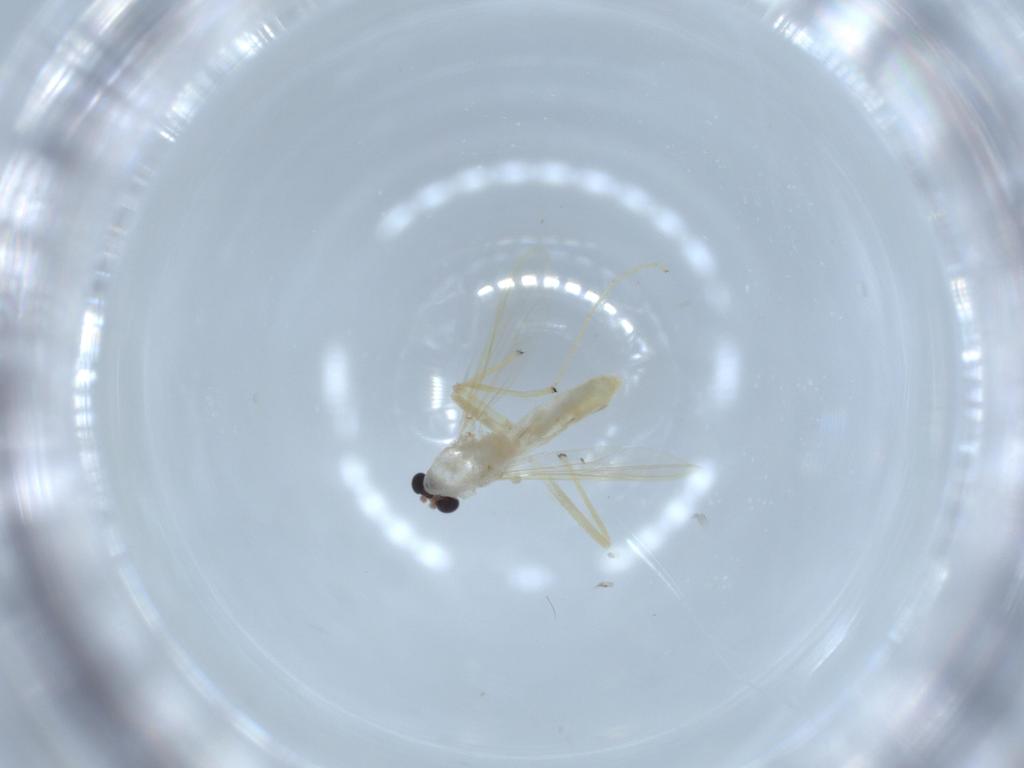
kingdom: Animalia
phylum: Arthropoda
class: Insecta
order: Diptera
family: Chironomidae
